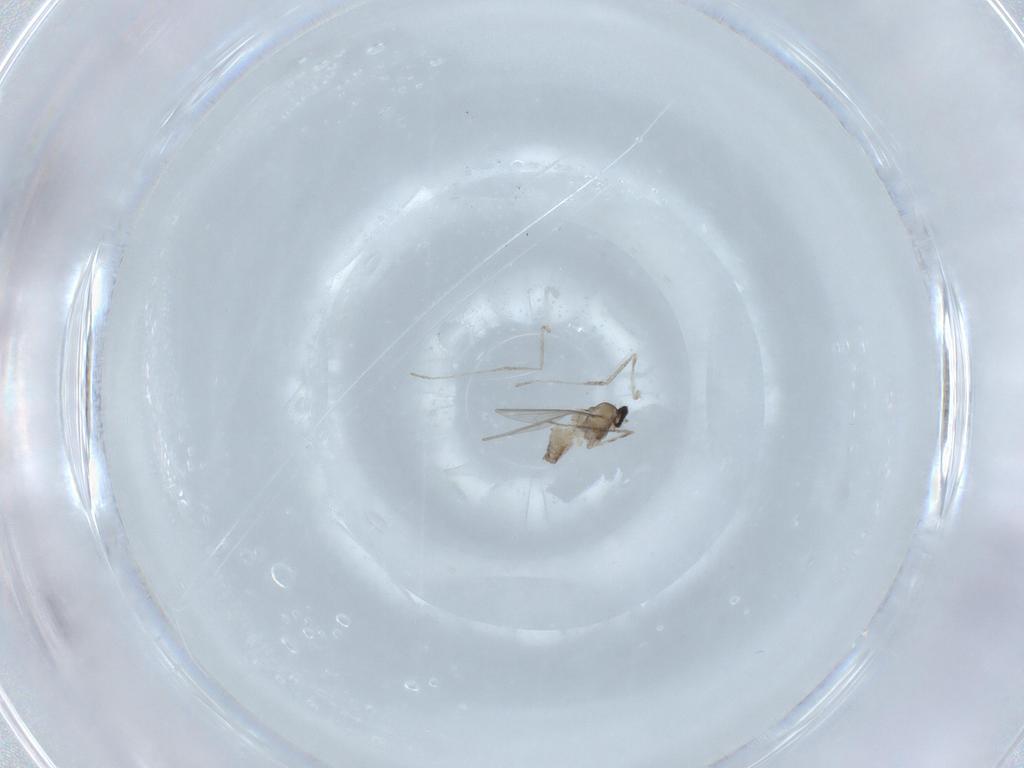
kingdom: Animalia
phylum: Arthropoda
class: Insecta
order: Diptera
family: Cecidomyiidae
